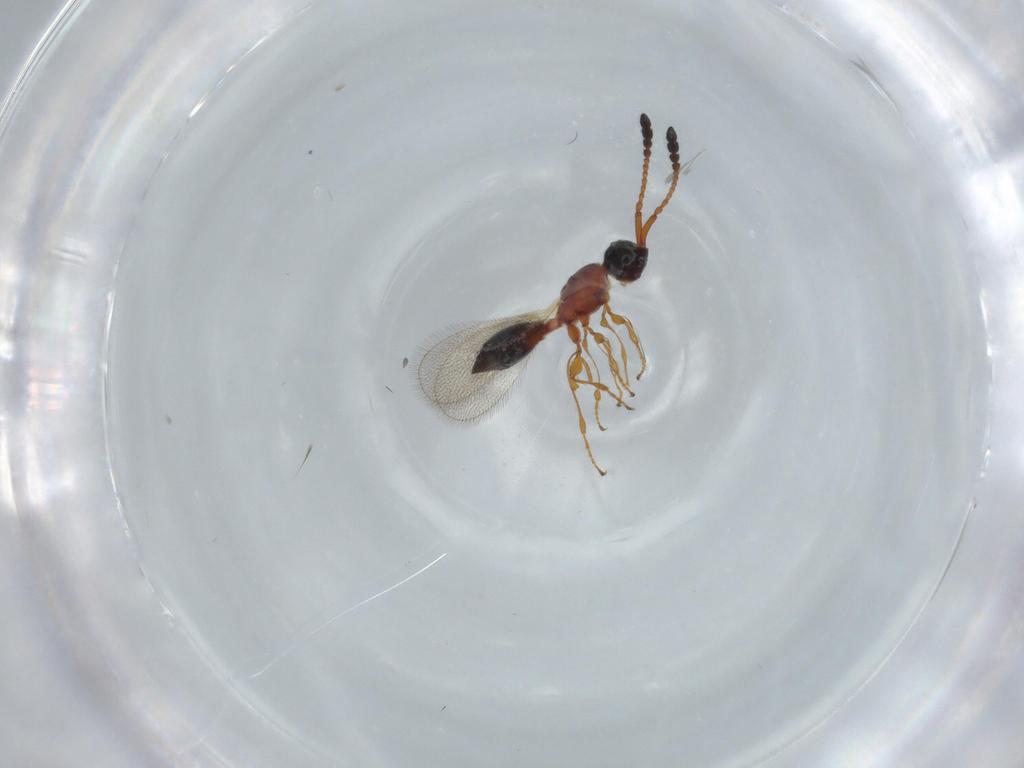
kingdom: Animalia
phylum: Arthropoda
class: Insecta
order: Hymenoptera
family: Diapriidae
